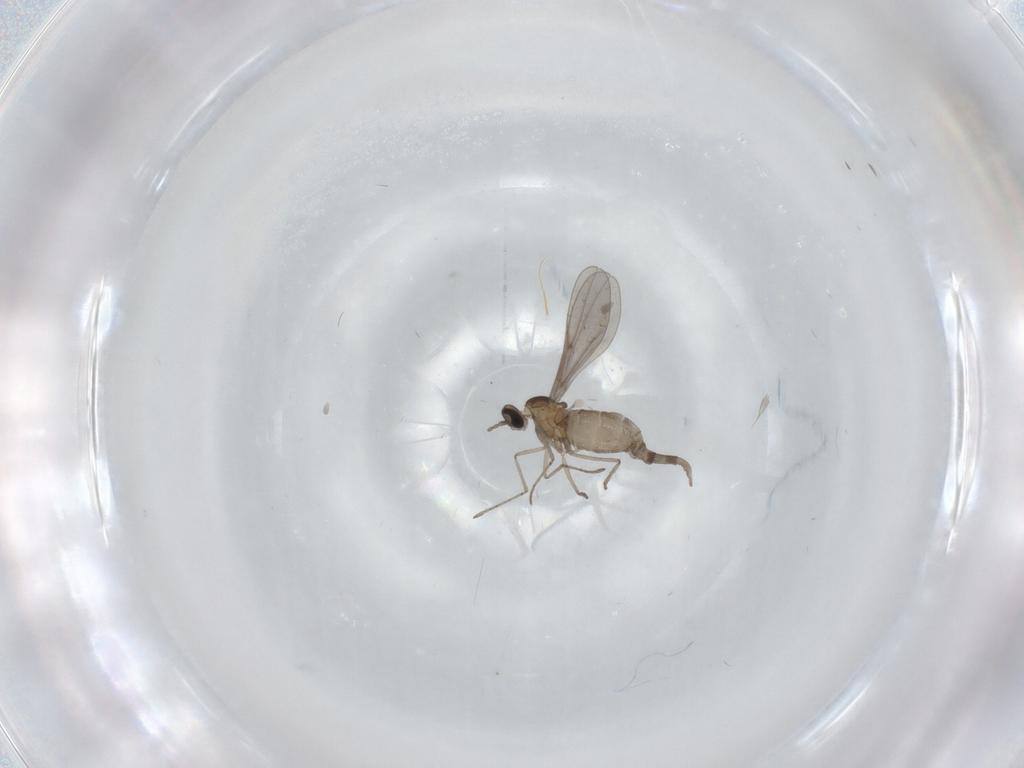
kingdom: Animalia
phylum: Arthropoda
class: Insecta
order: Diptera
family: Cecidomyiidae
